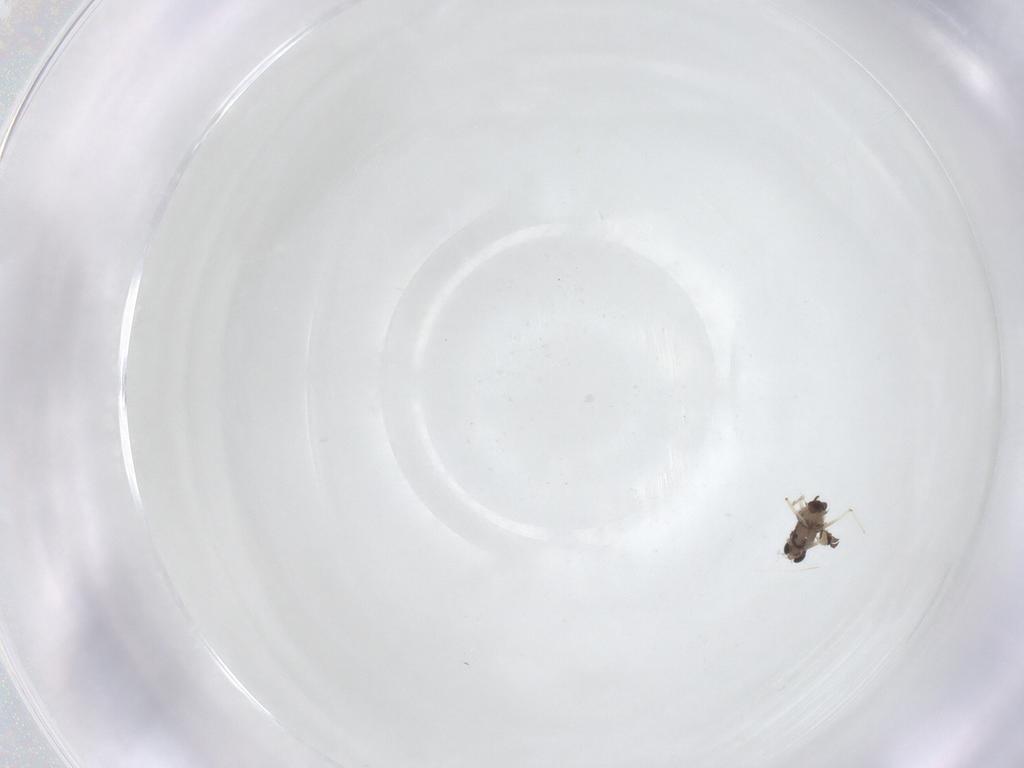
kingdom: Animalia
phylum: Arthropoda
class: Insecta
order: Diptera
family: Chironomidae
